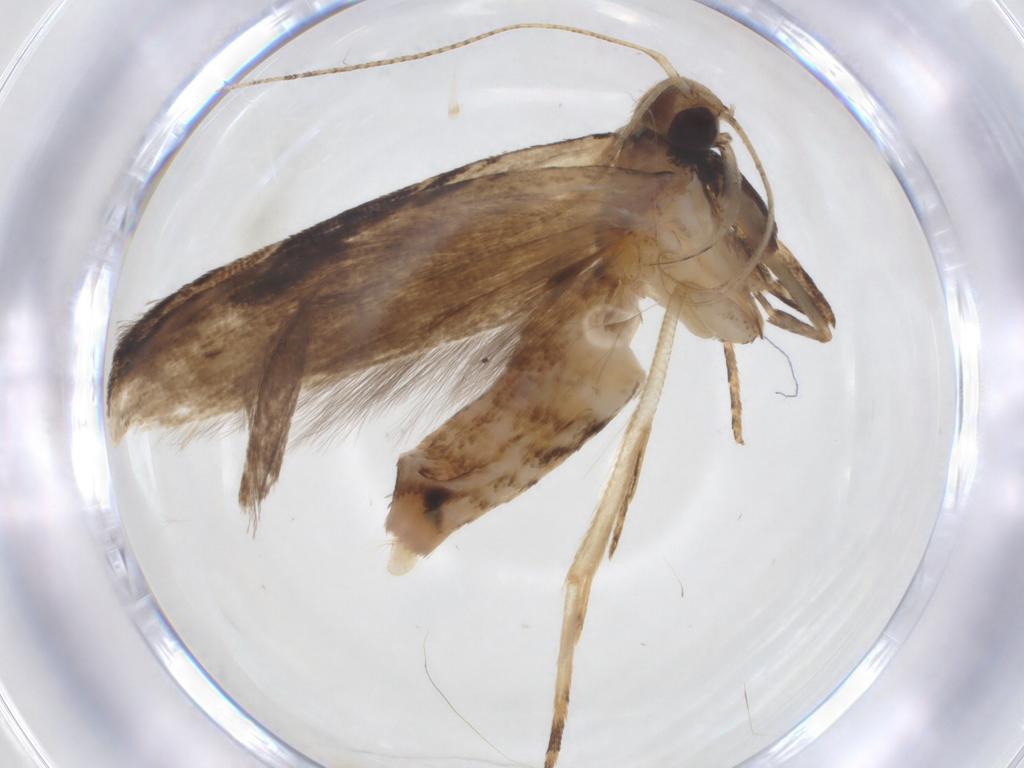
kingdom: Animalia
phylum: Arthropoda
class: Insecta
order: Lepidoptera
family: Gelechiidae
